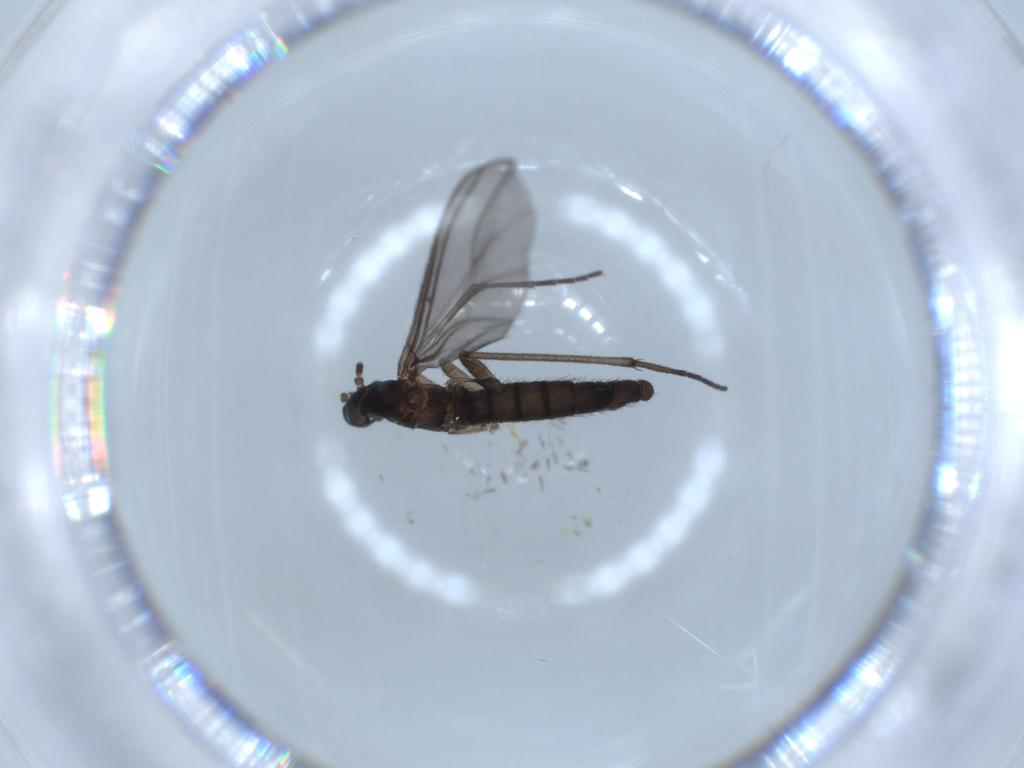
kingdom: Animalia
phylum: Arthropoda
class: Insecta
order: Diptera
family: Sciaridae
